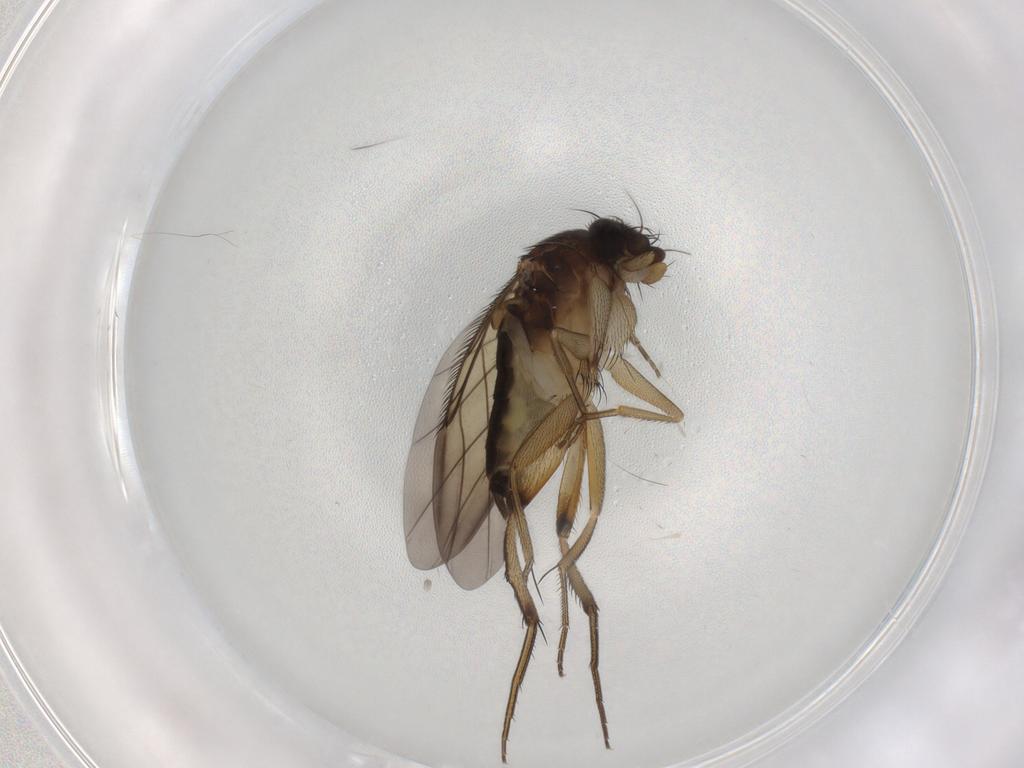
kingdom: Animalia
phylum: Arthropoda
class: Insecta
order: Diptera
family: Phoridae
